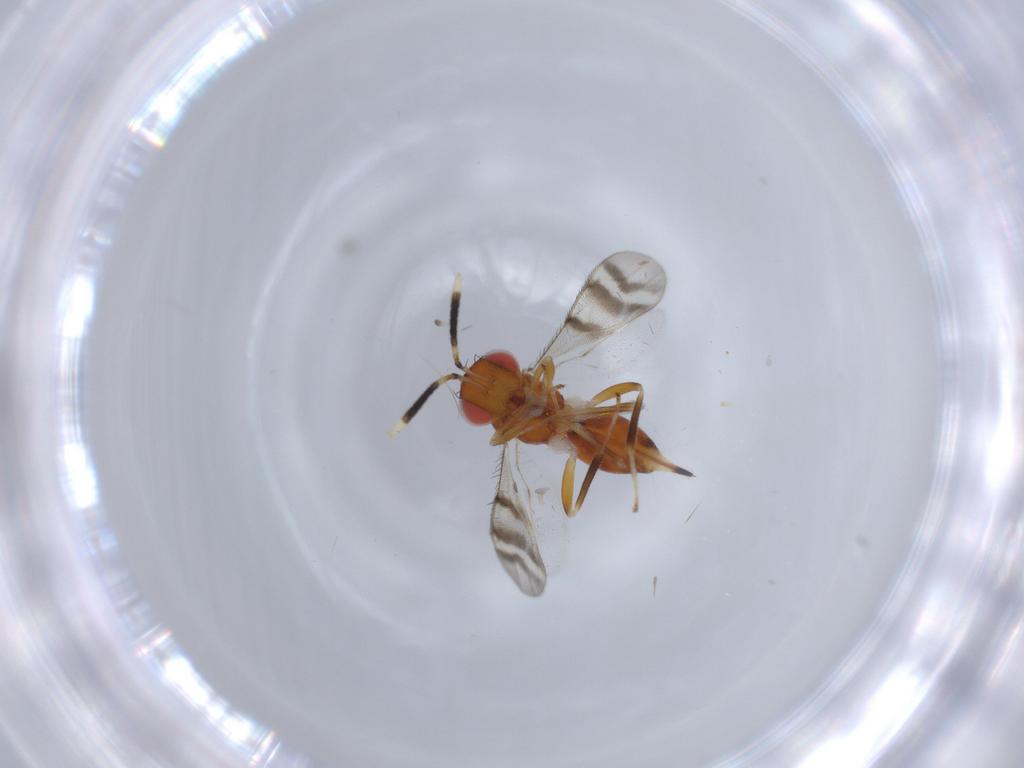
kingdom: Animalia
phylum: Arthropoda
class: Insecta
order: Hymenoptera
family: Diparidae
